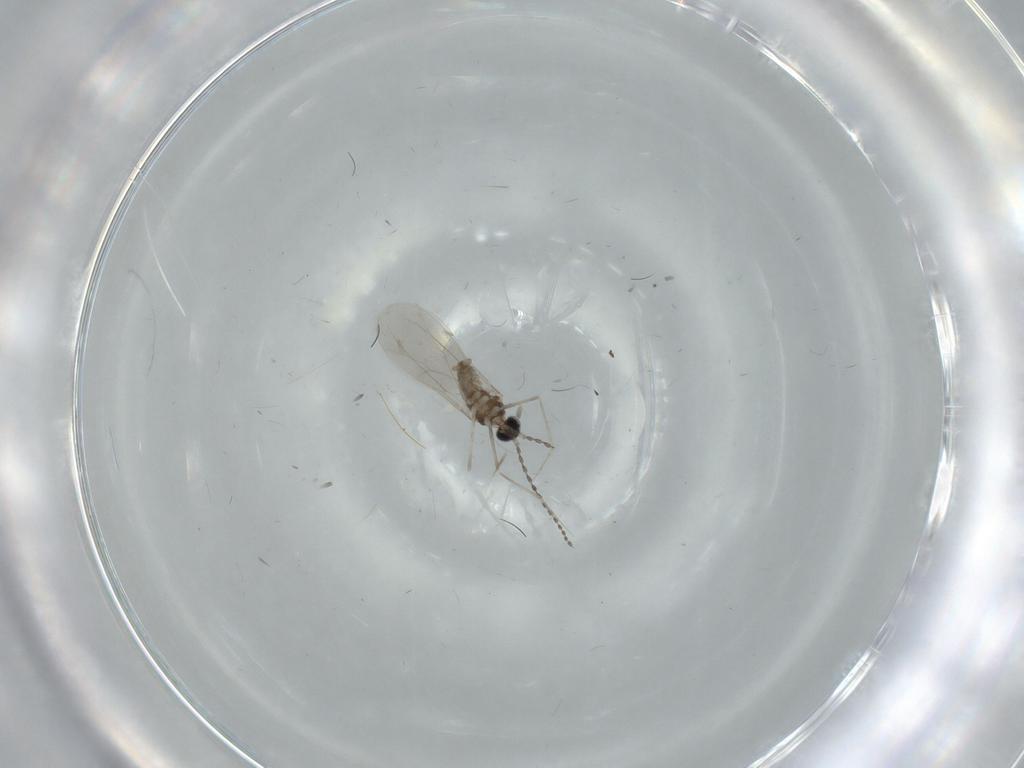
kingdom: Animalia
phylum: Arthropoda
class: Insecta
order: Diptera
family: Cecidomyiidae
